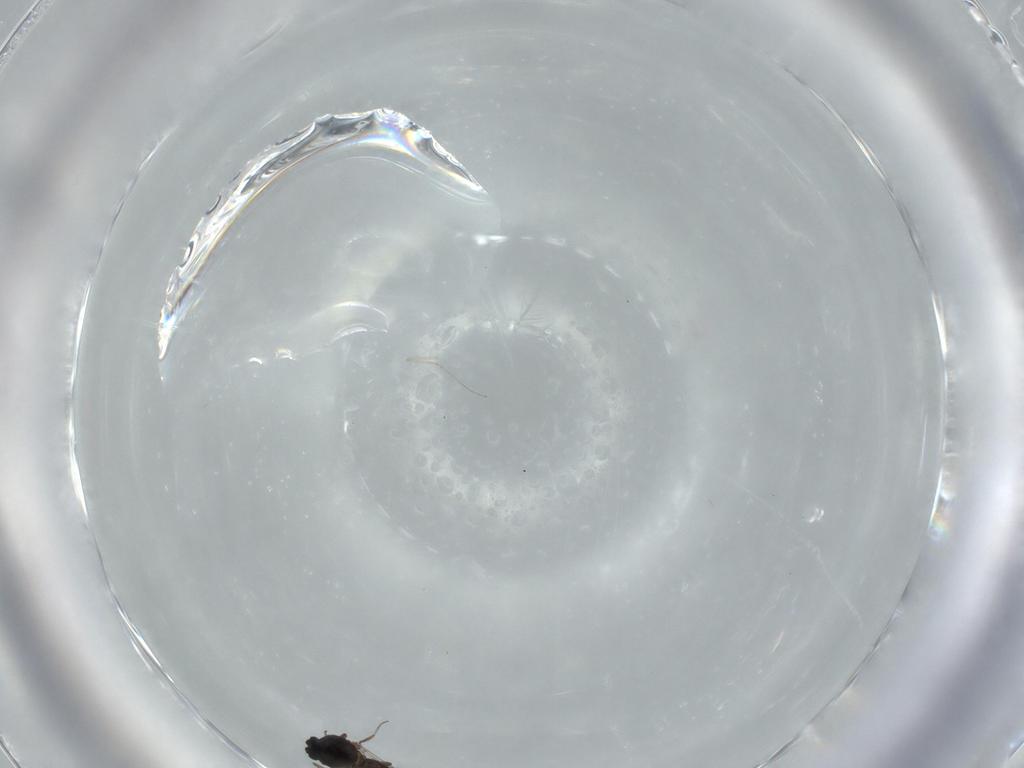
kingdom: Animalia
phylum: Arthropoda
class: Insecta
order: Diptera
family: Cecidomyiidae
